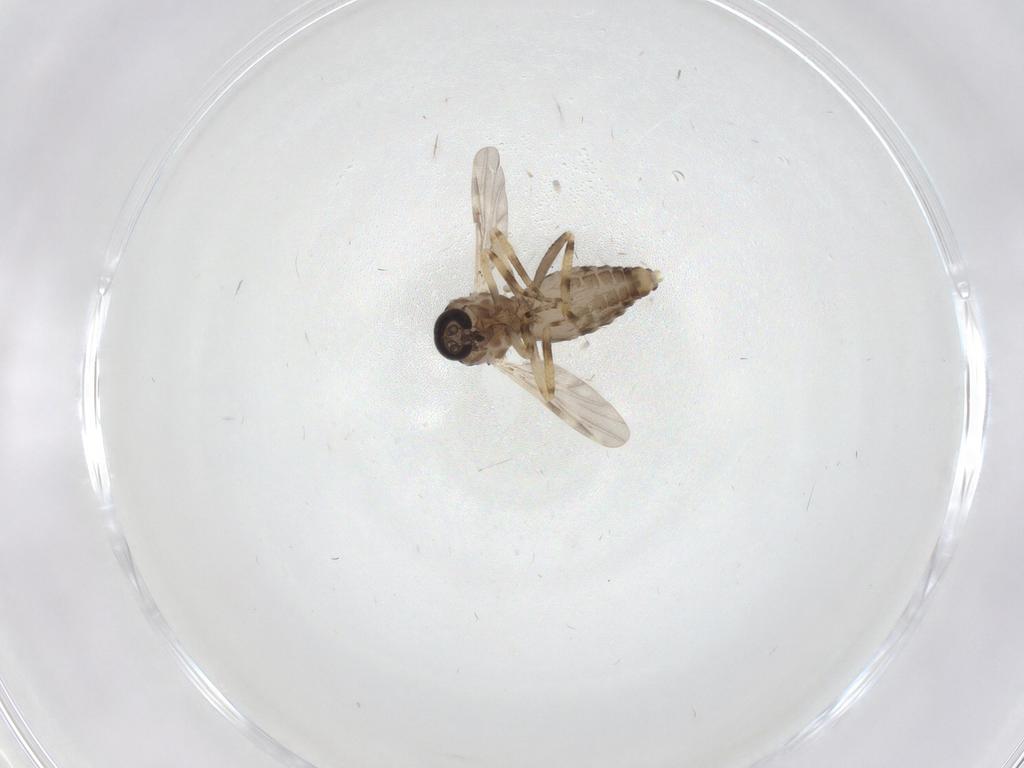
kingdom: Animalia
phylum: Arthropoda
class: Insecta
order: Diptera
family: Ceratopogonidae
